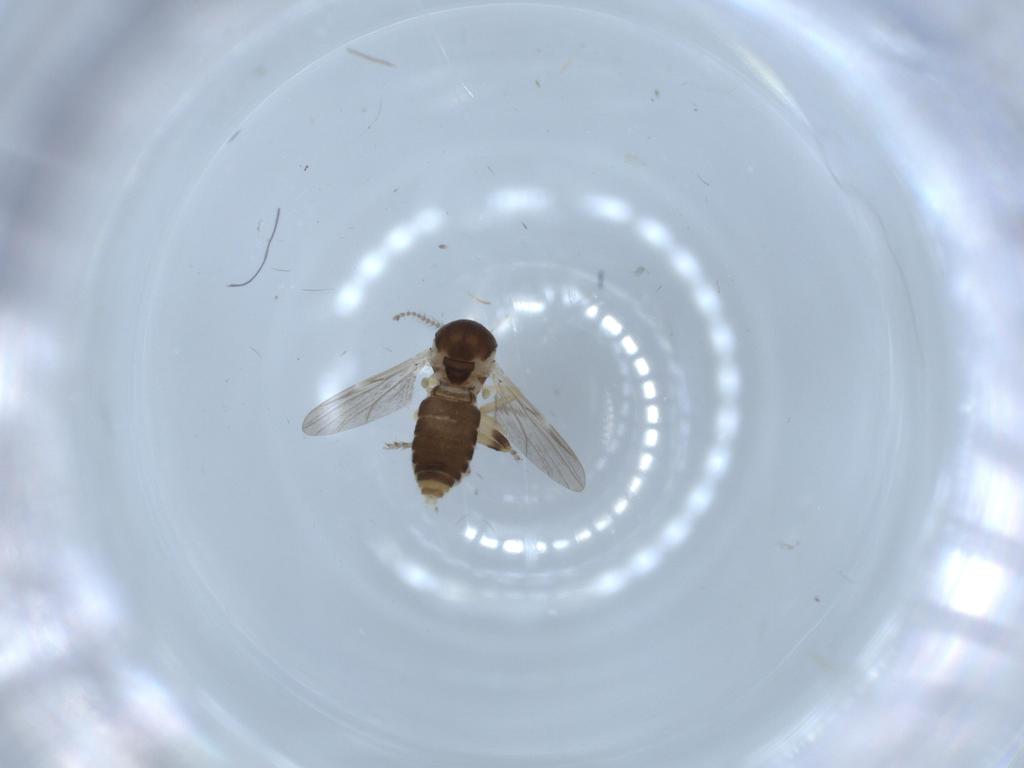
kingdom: Animalia
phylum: Arthropoda
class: Insecta
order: Diptera
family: Ceratopogonidae
